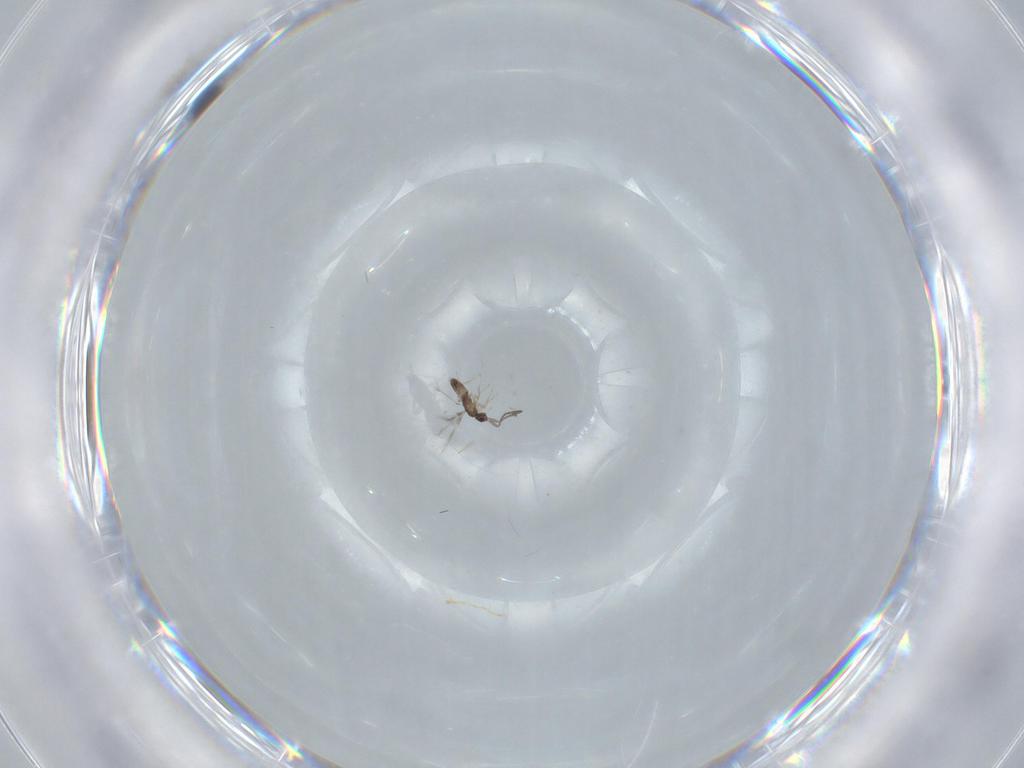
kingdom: Animalia
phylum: Arthropoda
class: Insecta
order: Hymenoptera
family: Mymaridae
